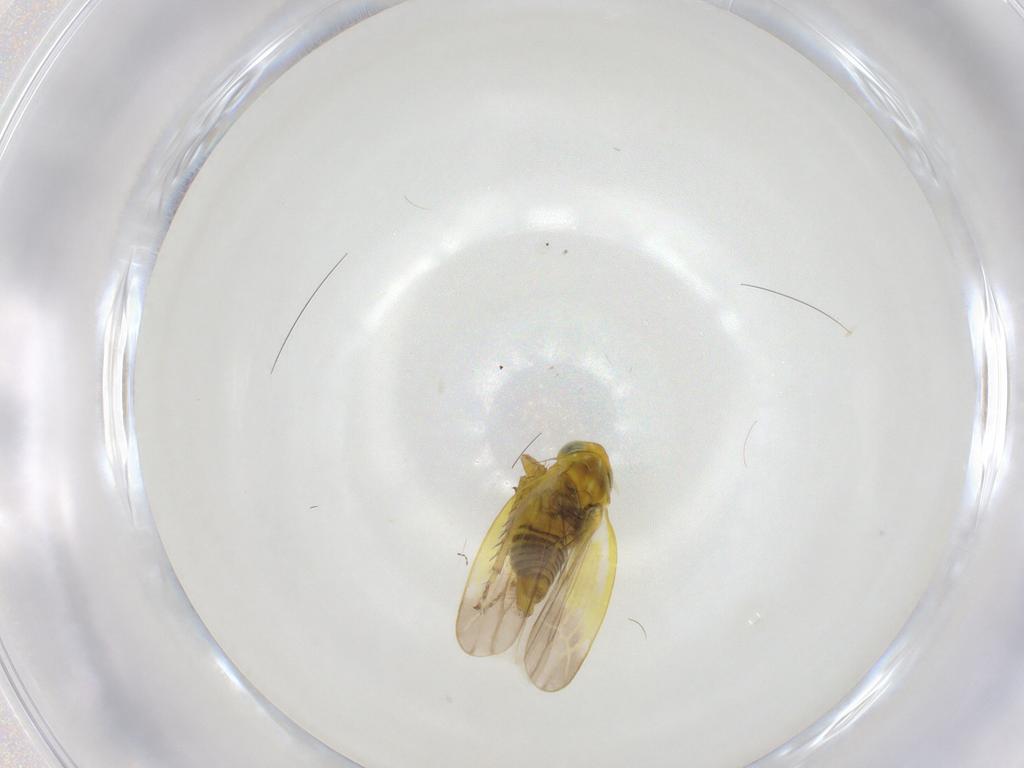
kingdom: Animalia
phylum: Arthropoda
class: Insecta
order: Hemiptera
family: Cicadellidae
